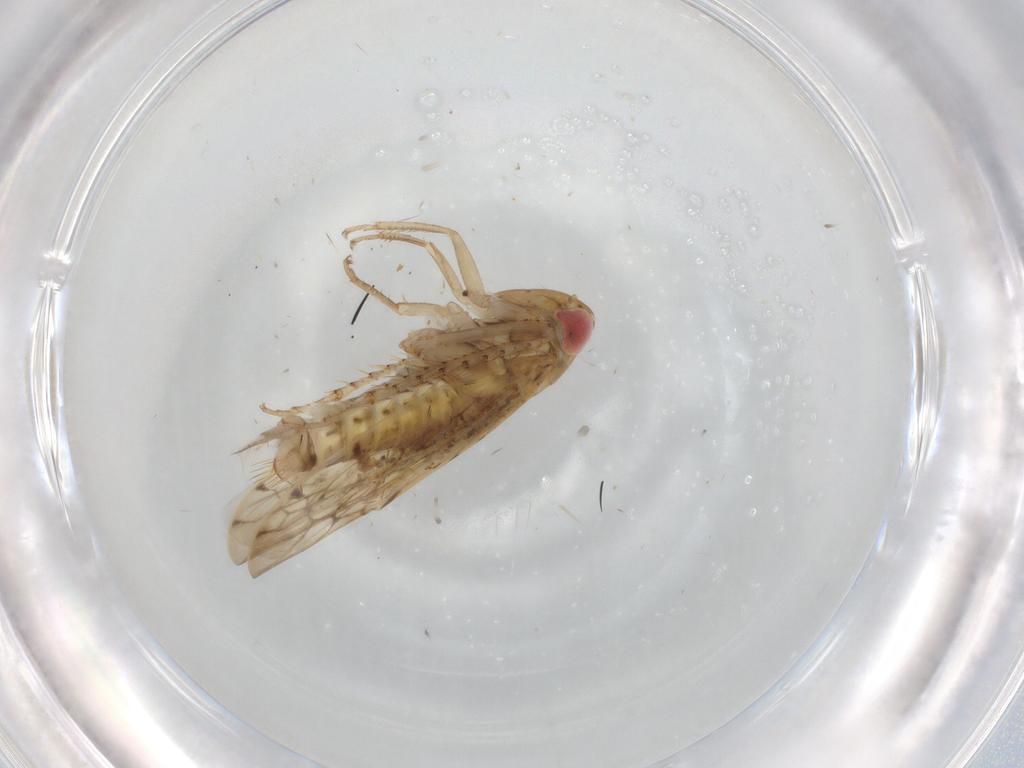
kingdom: Animalia
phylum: Arthropoda
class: Insecta
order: Hemiptera
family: Cicadellidae
